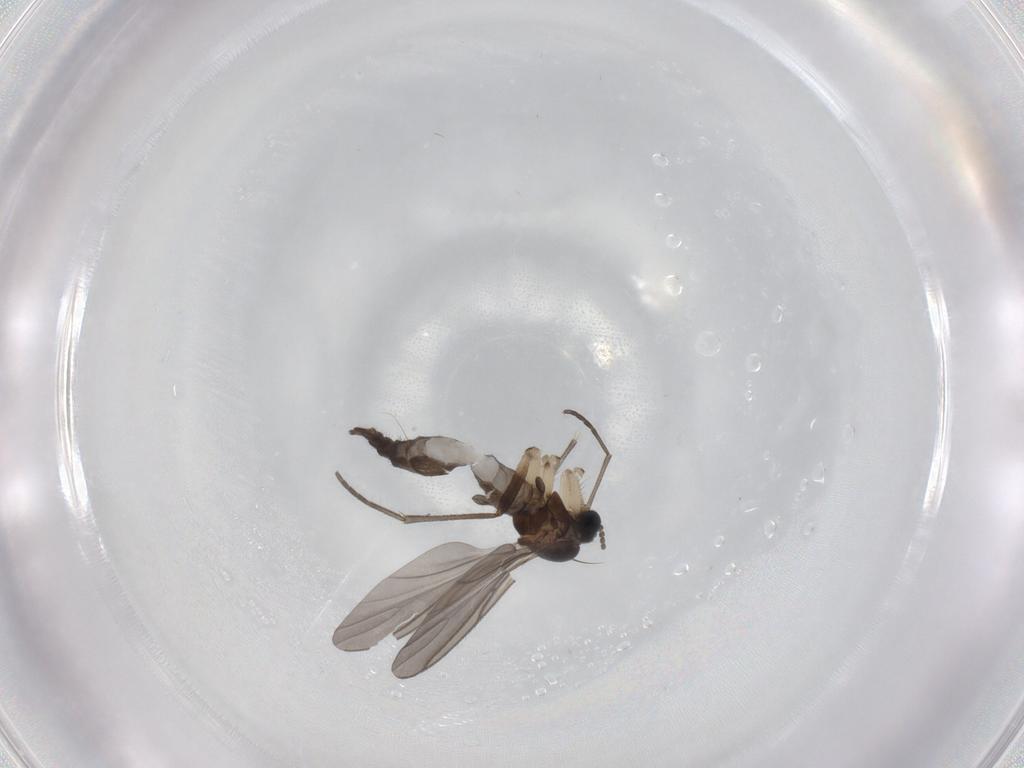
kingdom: Animalia
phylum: Arthropoda
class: Insecta
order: Diptera
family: Sciaridae
